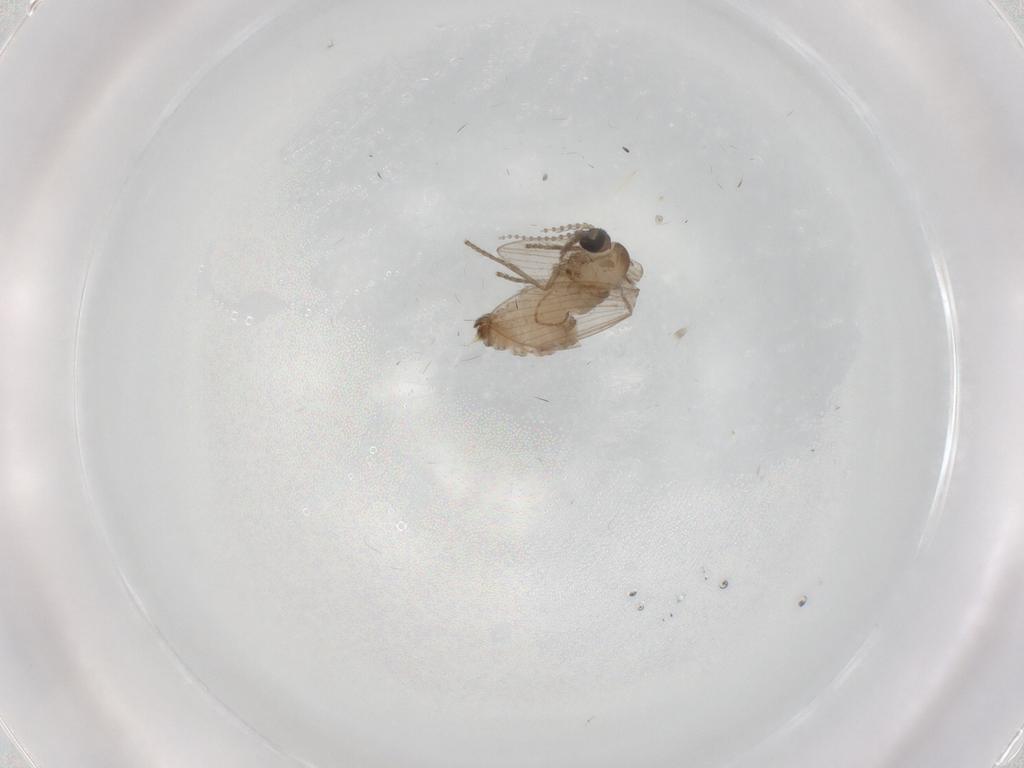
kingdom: Animalia
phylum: Arthropoda
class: Insecta
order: Diptera
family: Psychodidae
